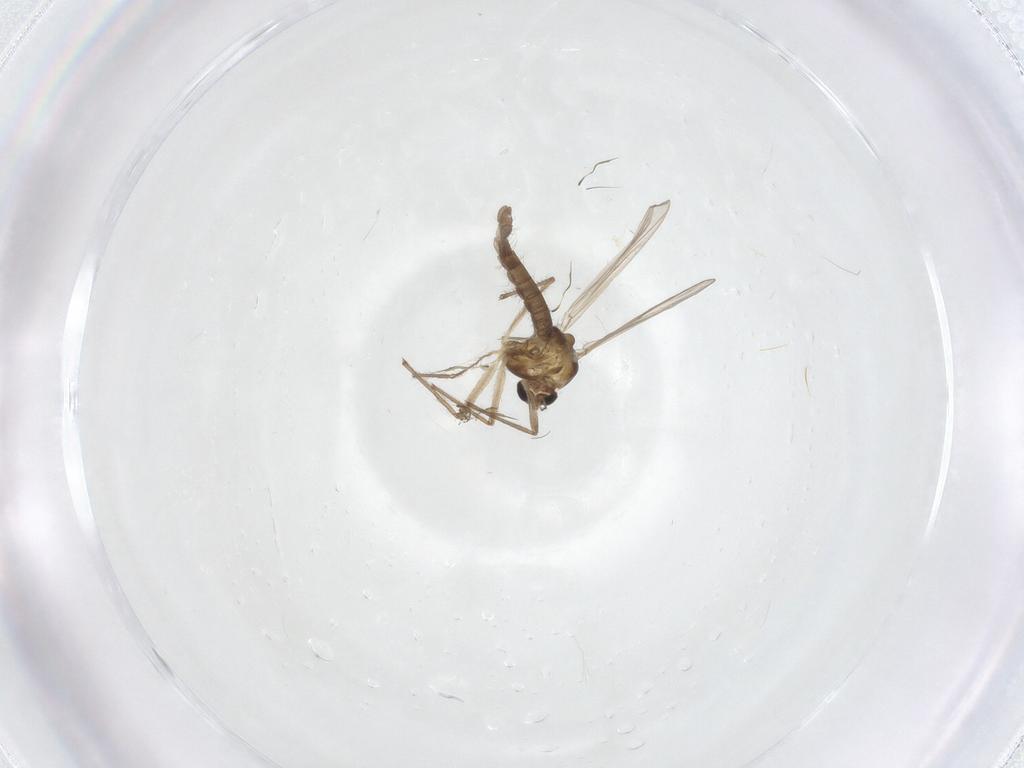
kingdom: Animalia
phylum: Arthropoda
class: Insecta
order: Diptera
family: Chironomidae
